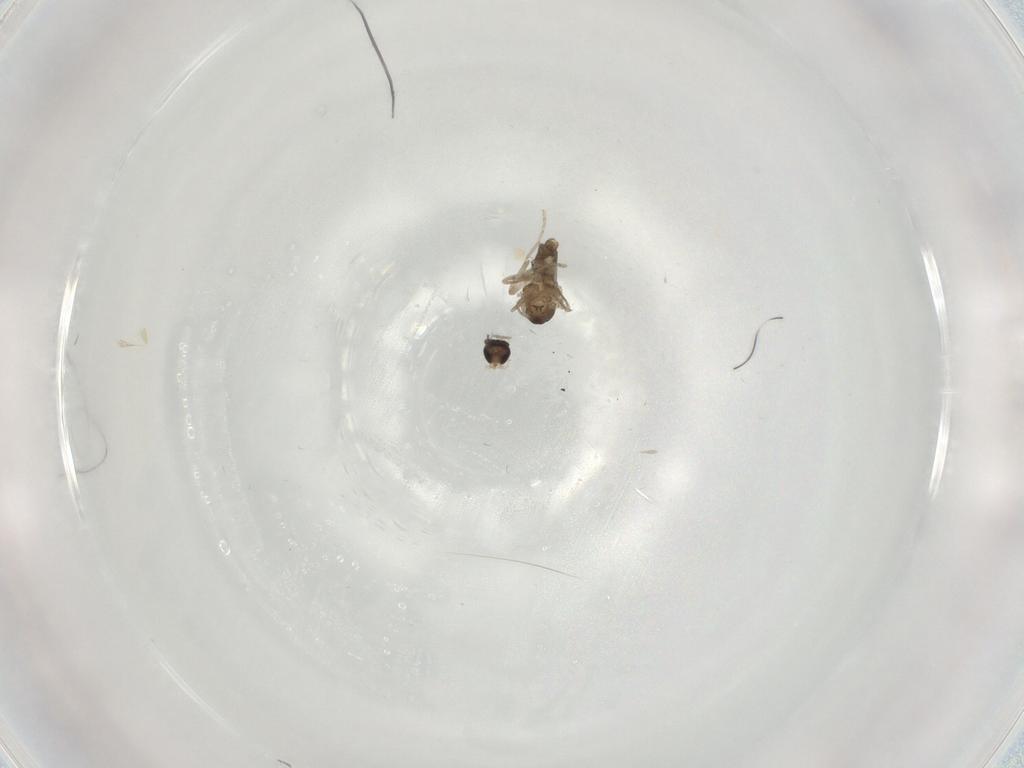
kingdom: Animalia
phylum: Arthropoda
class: Insecta
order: Diptera
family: Cecidomyiidae
